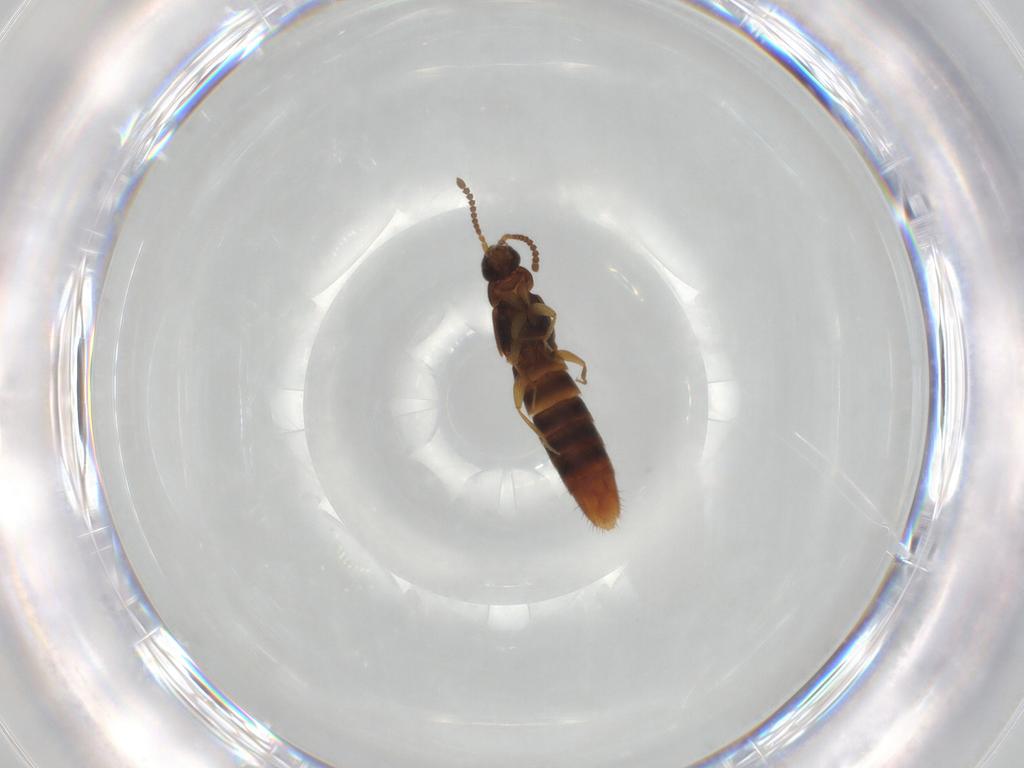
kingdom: Animalia
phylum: Arthropoda
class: Insecta
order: Coleoptera
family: Staphylinidae
